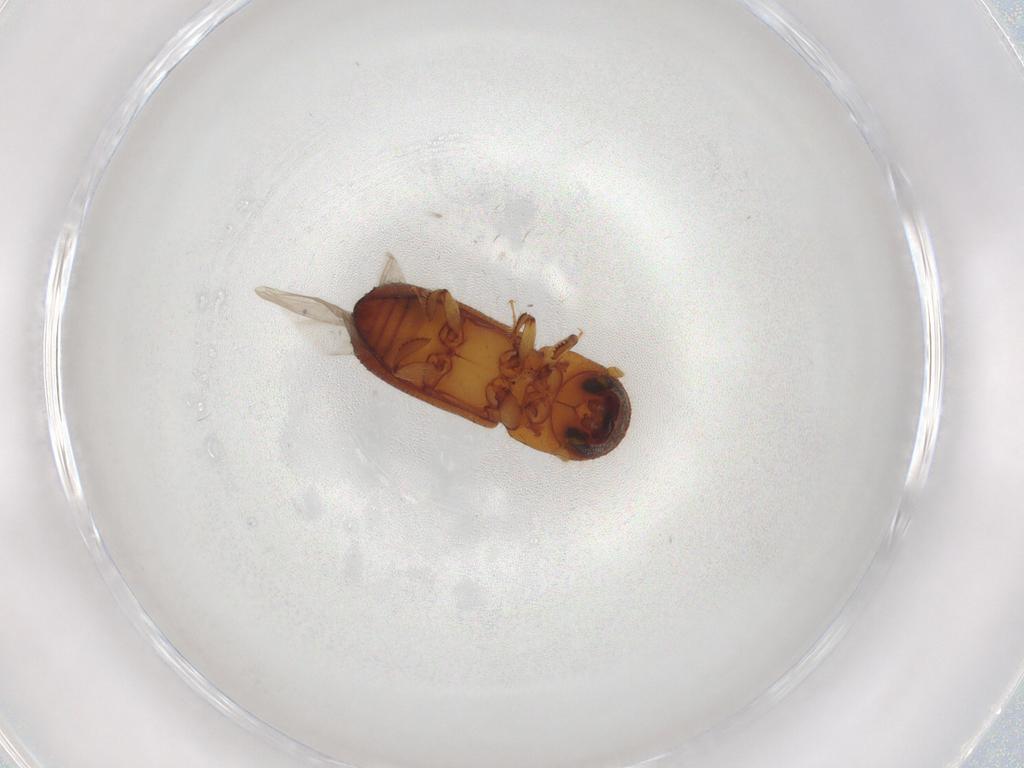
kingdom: Animalia
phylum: Arthropoda
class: Insecta
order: Coleoptera
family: Curculionidae
